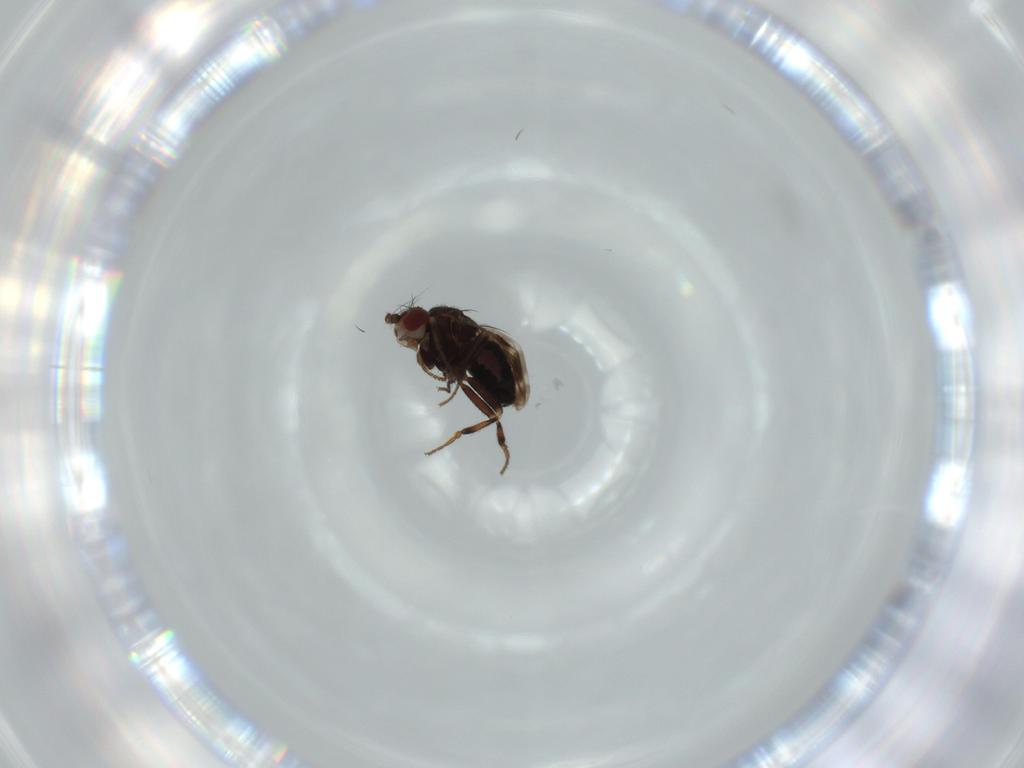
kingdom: Animalia
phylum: Arthropoda
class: Insecta
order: Diptera
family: Sphaeroceridae
